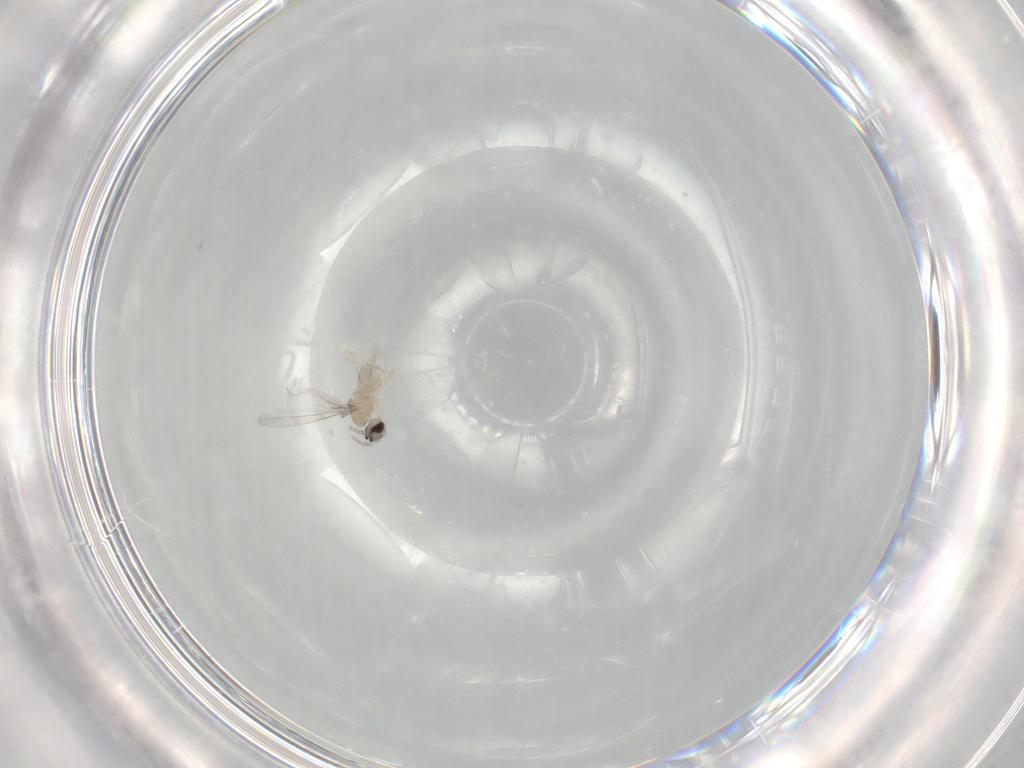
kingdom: Animalia
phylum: Arthropoda
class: Insecta
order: Diptera
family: Cecidomyiidae
